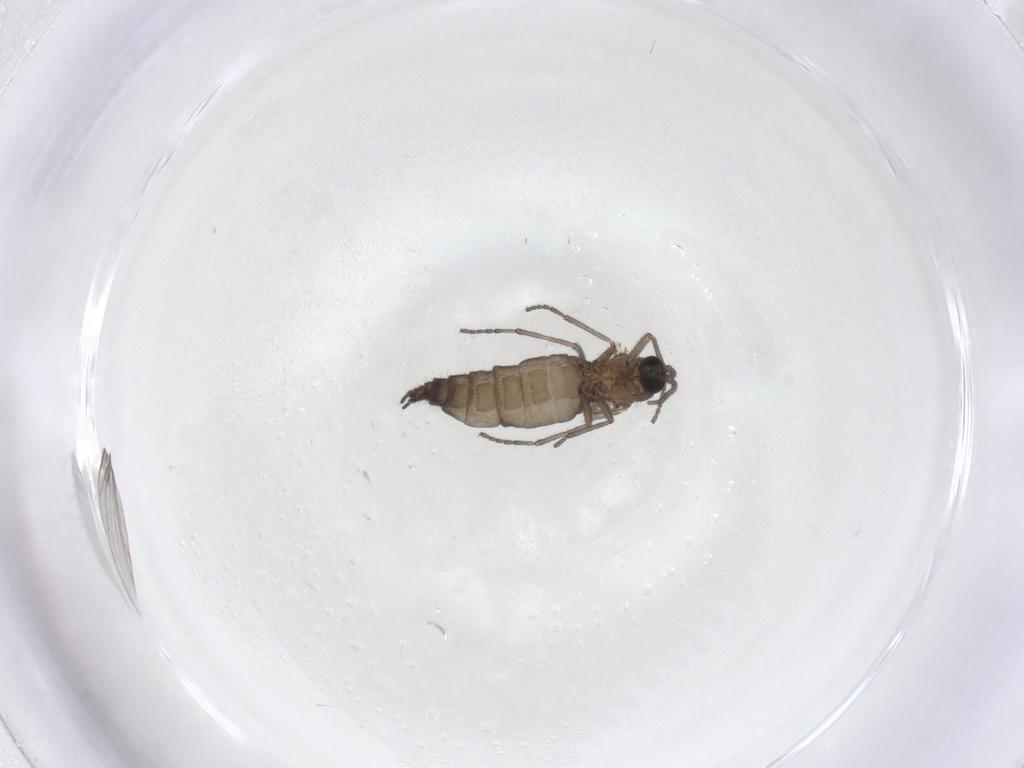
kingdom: Animalia
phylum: Arthropoda
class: Insecta
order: Diptera
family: Sciaridae
